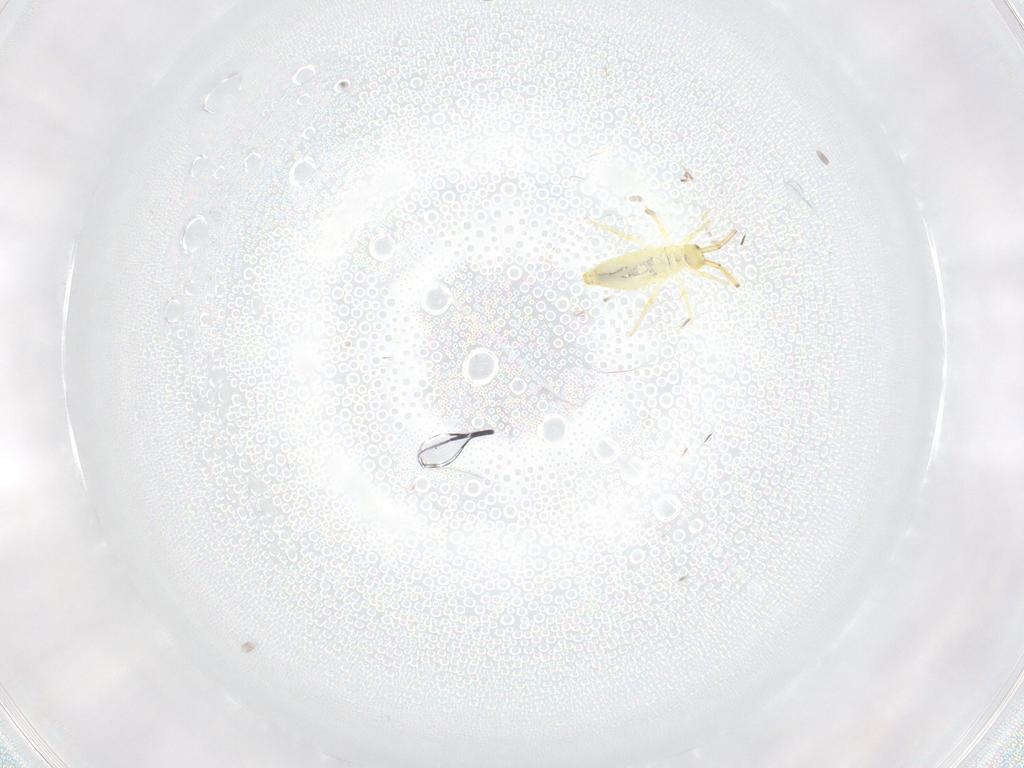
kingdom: Animalia
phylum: Arthropoda
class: Collembola
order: Entomobryomorpha
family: Paronellidae
